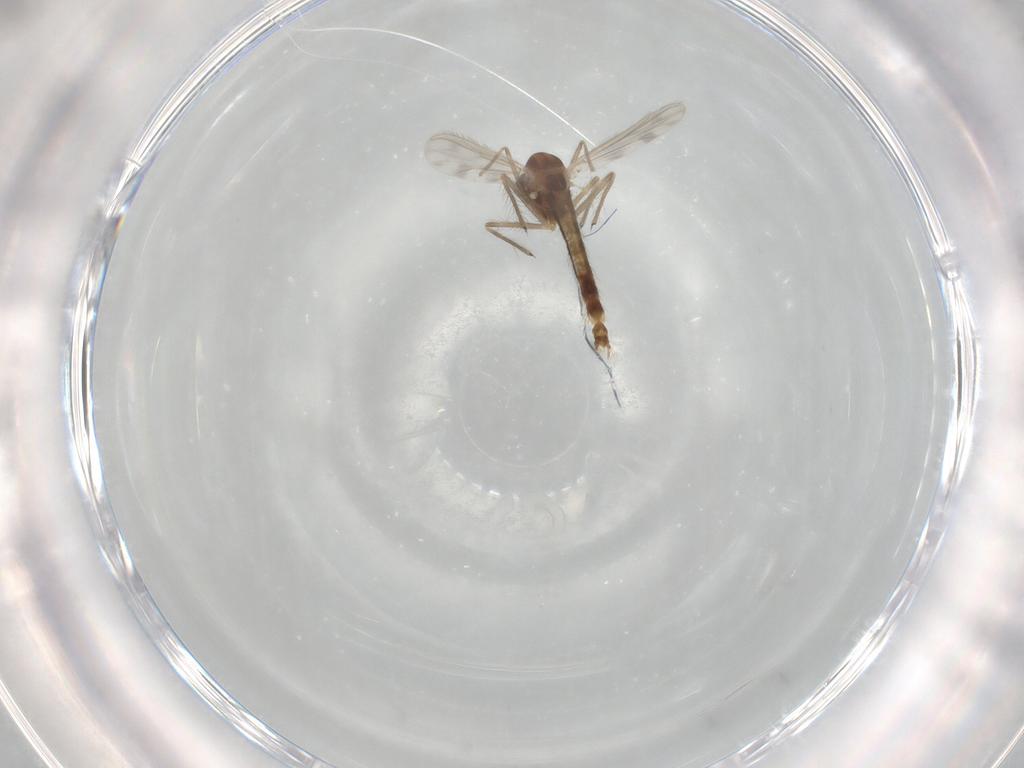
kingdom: Animalia
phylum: Arthropoda
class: Insecta
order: Diptera
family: Chironomidae
